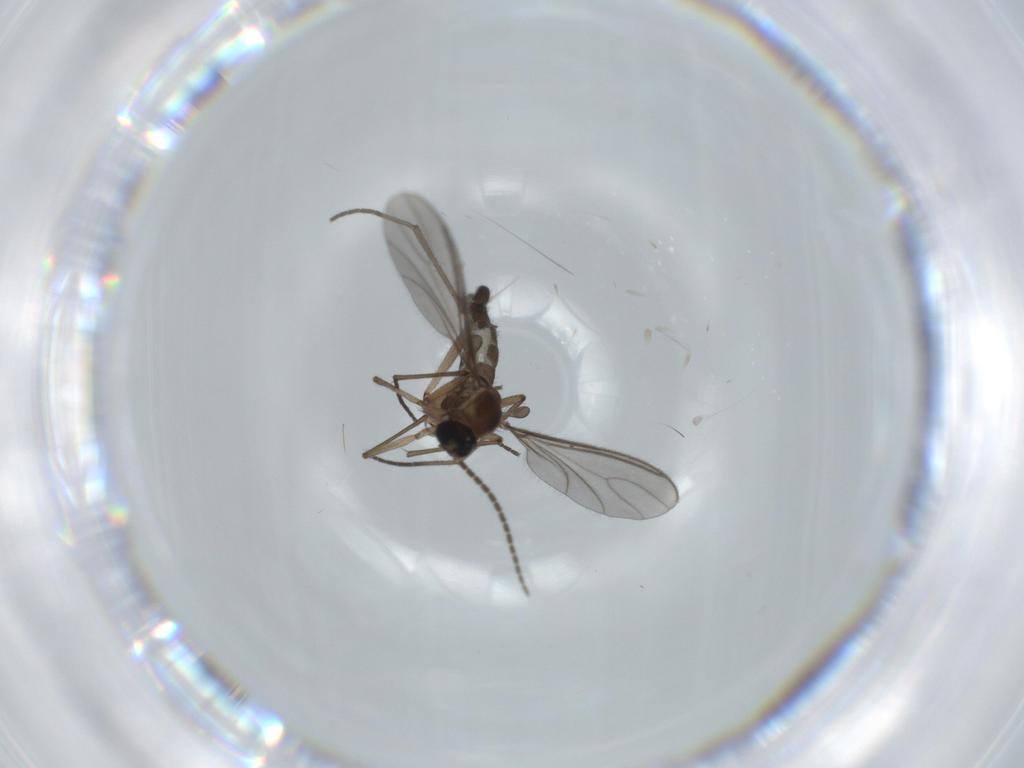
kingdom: Animalia
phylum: Arthropoda
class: Insecta
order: Diptera
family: Sciaridae
